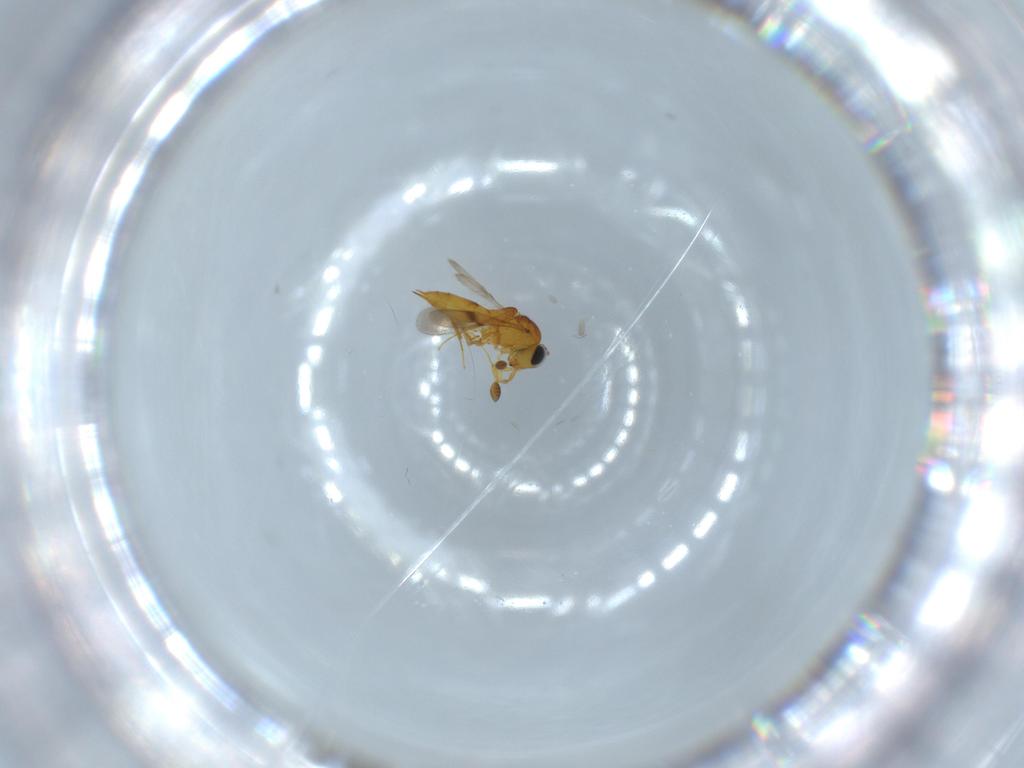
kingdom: Animalia
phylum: Arthropoda
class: Insecta
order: Hymenoptera
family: Scelionidae
